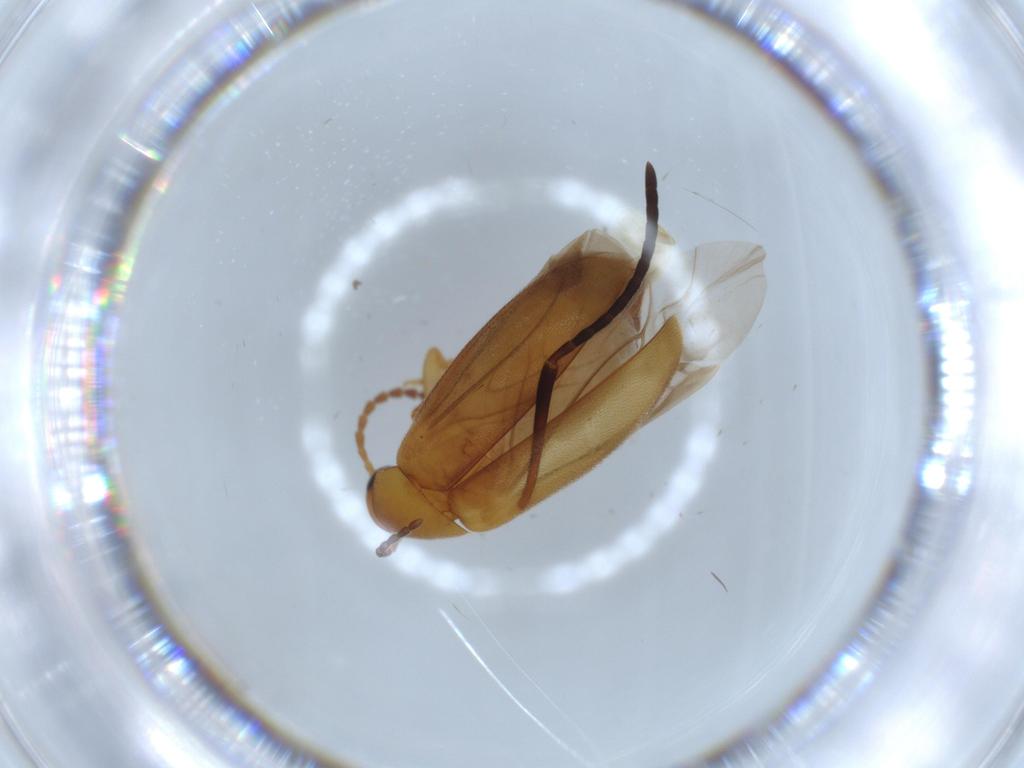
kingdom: Animalia
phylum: Arthropoda
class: Insecta
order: Coleoptera
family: Scraptiidae
